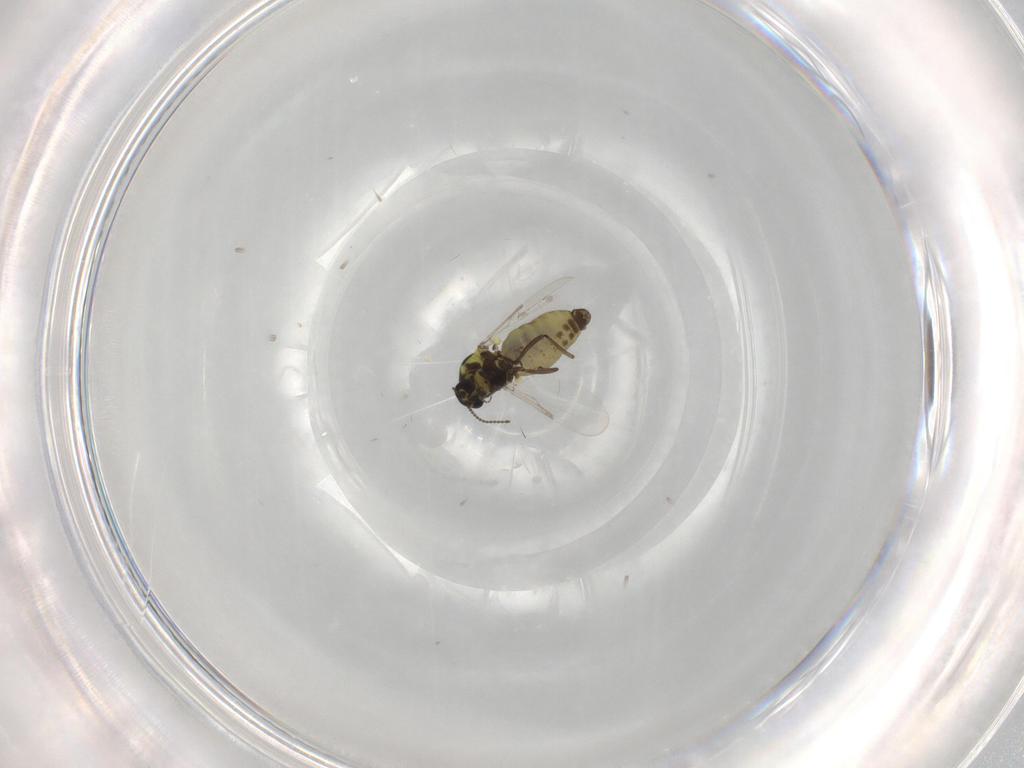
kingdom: Animalia
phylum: Arthropoda
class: Insecta
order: Diptera
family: Ceratopogonidae
